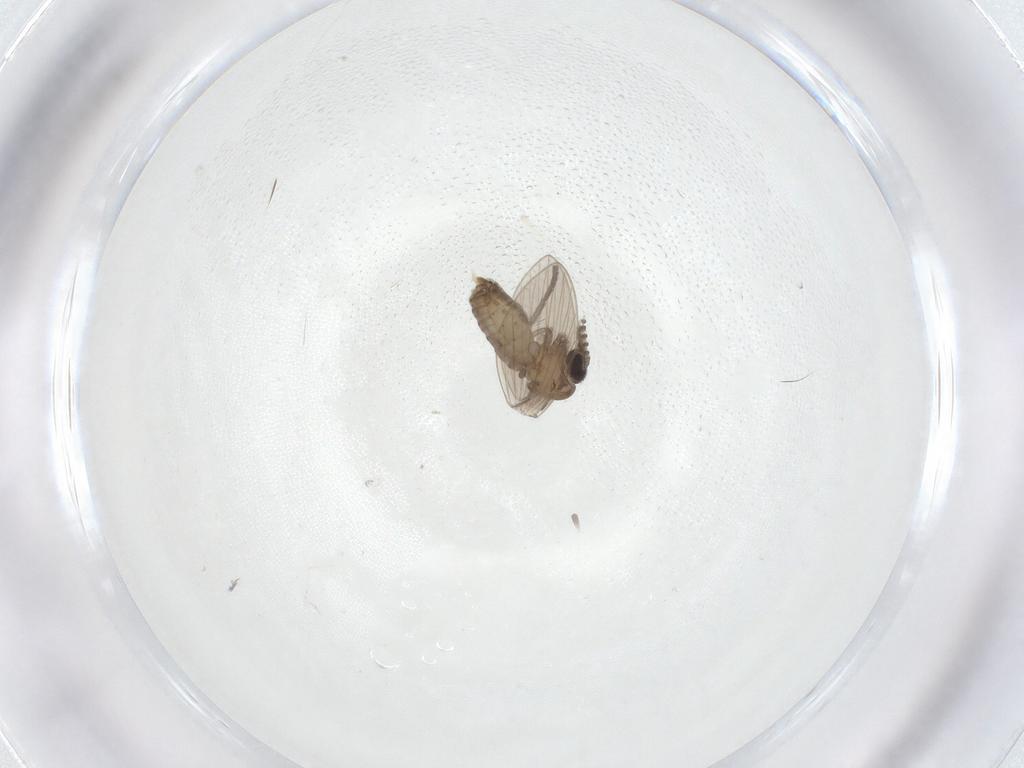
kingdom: Animalia
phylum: Arthropoda
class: Insecta
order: Diptera
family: Psychodidae
